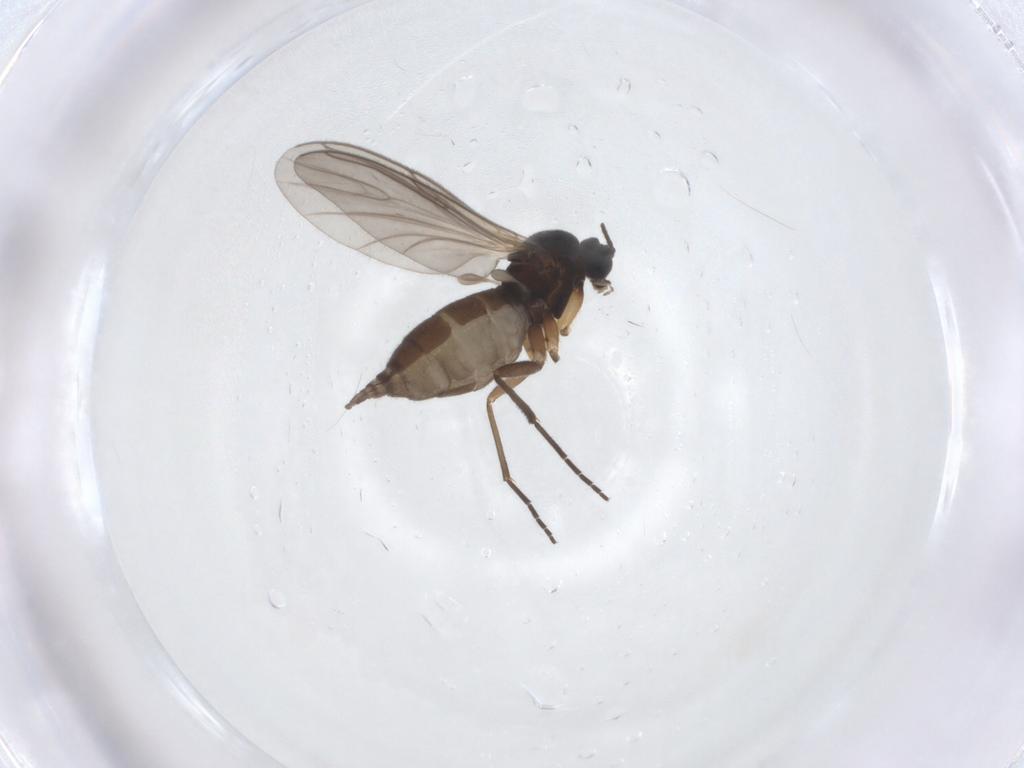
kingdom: Animalia
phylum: Arthropoda
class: Insecta
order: Diptera
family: Sciaridae
